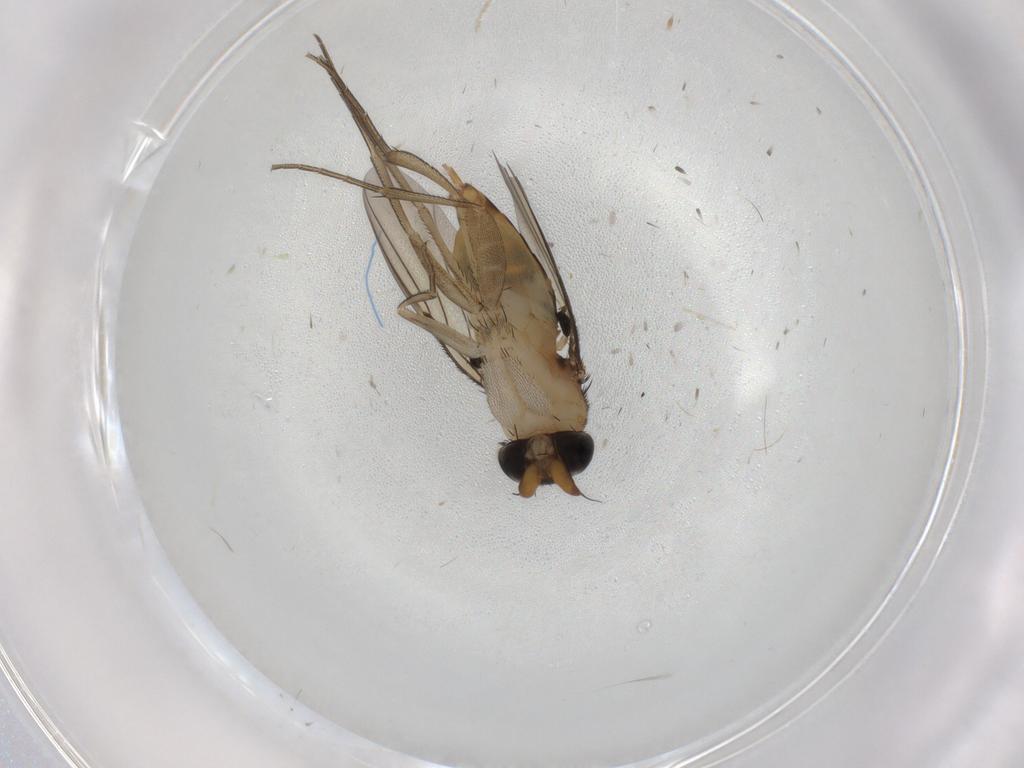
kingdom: Animalia
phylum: Arthropoda
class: Insecta
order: Diptera
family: Phoridae
